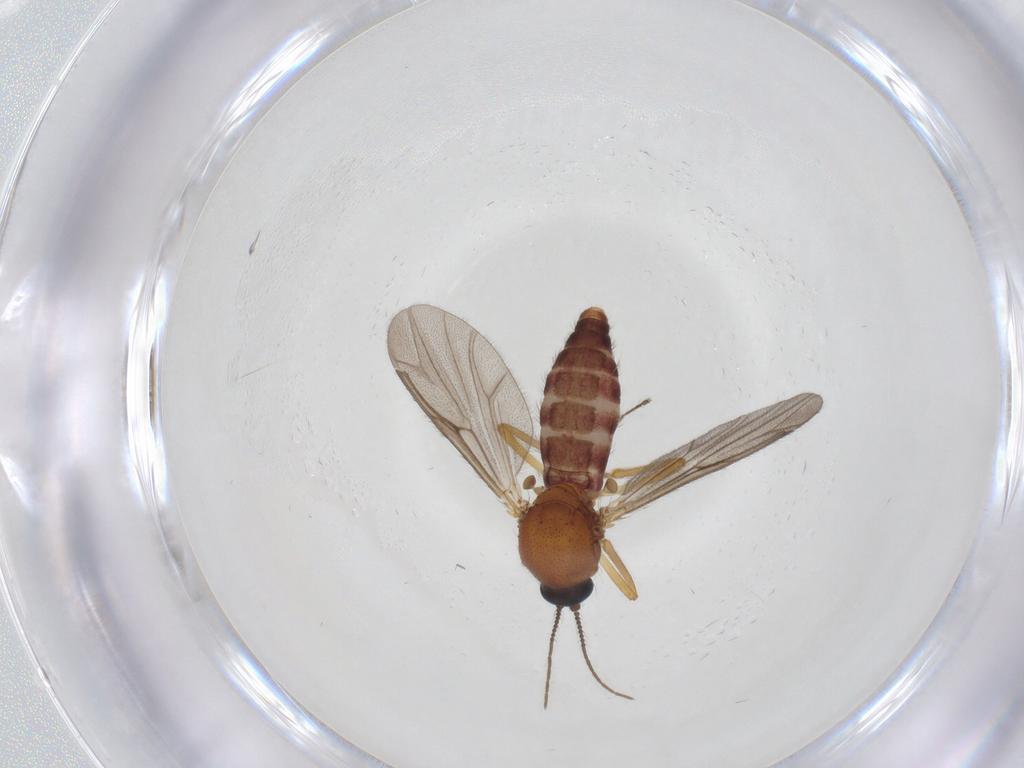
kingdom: Animalia
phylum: Arthropoda
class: Insecta
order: Diptera
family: Ceratopogonidae
